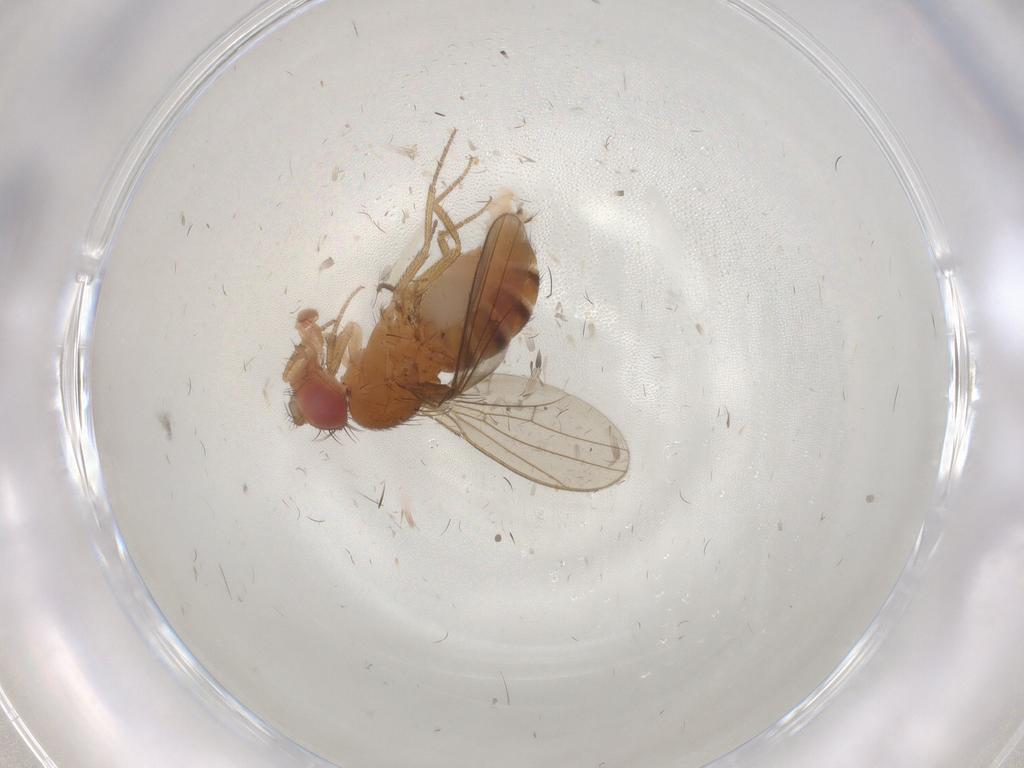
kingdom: Animalia
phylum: Arthropoda
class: Insecta
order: Diptera
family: Drosophilidae
